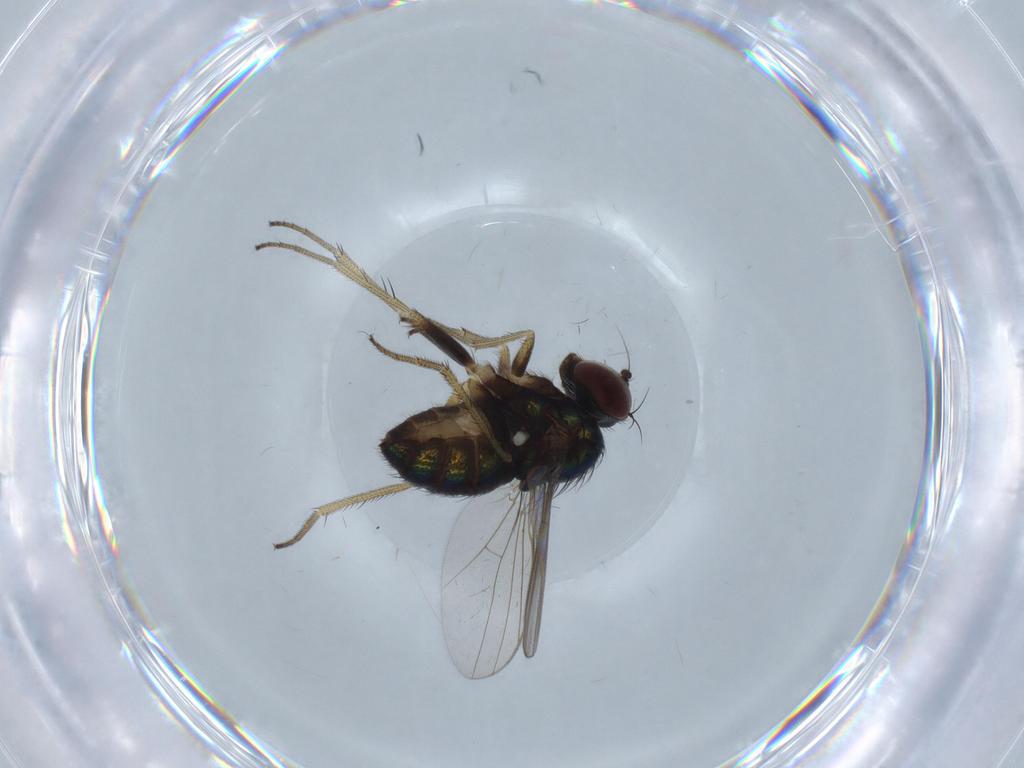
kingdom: Animalia
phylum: Arthropoda
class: Insecta
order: Diptera
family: Dolichopodidae
